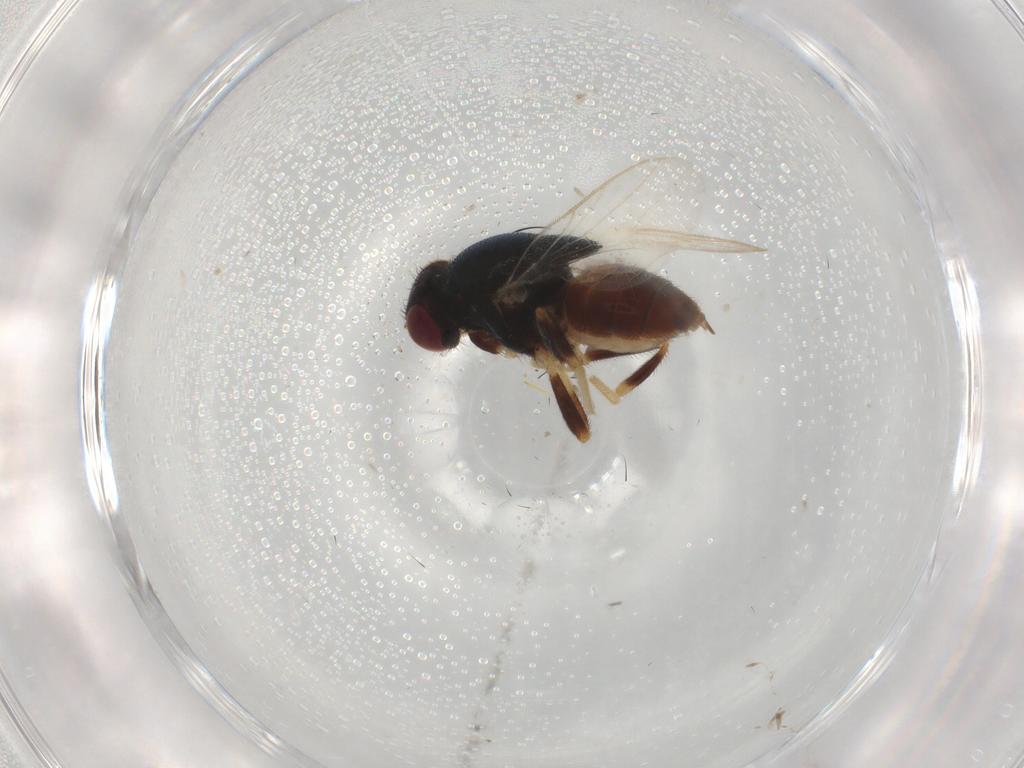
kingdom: Animalia
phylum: Arthropoda
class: Insecta
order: Diptera
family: Chloropidae
